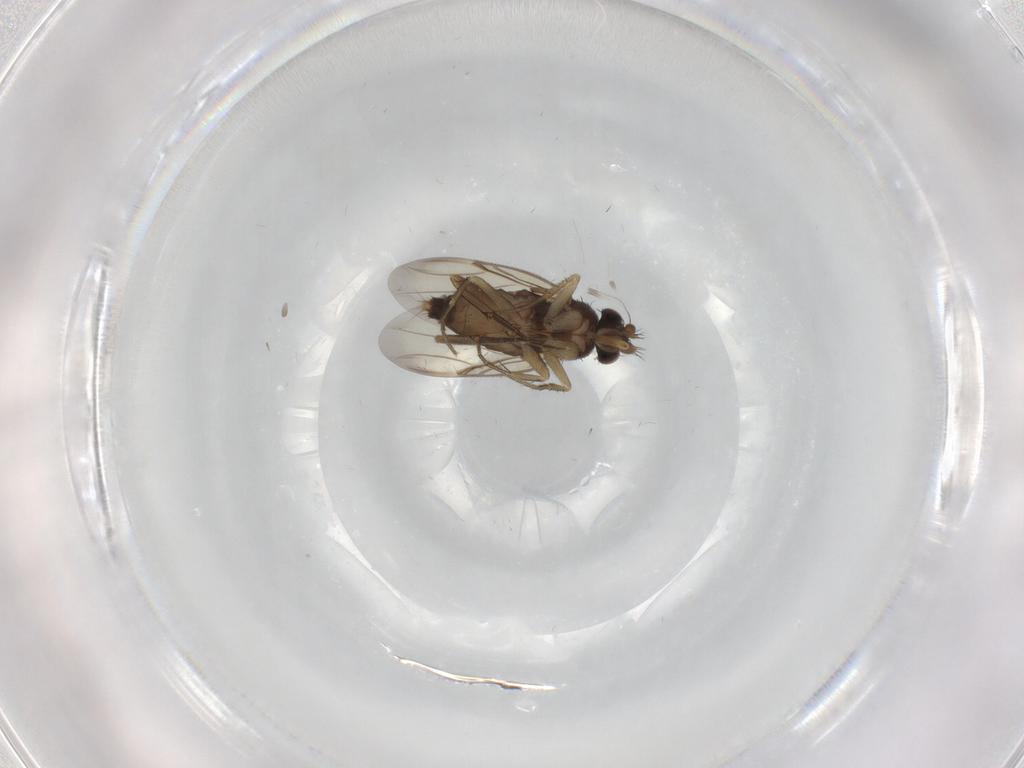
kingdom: Animalia
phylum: Arthropoda
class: Insecta
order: Diptera
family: Phoridae
